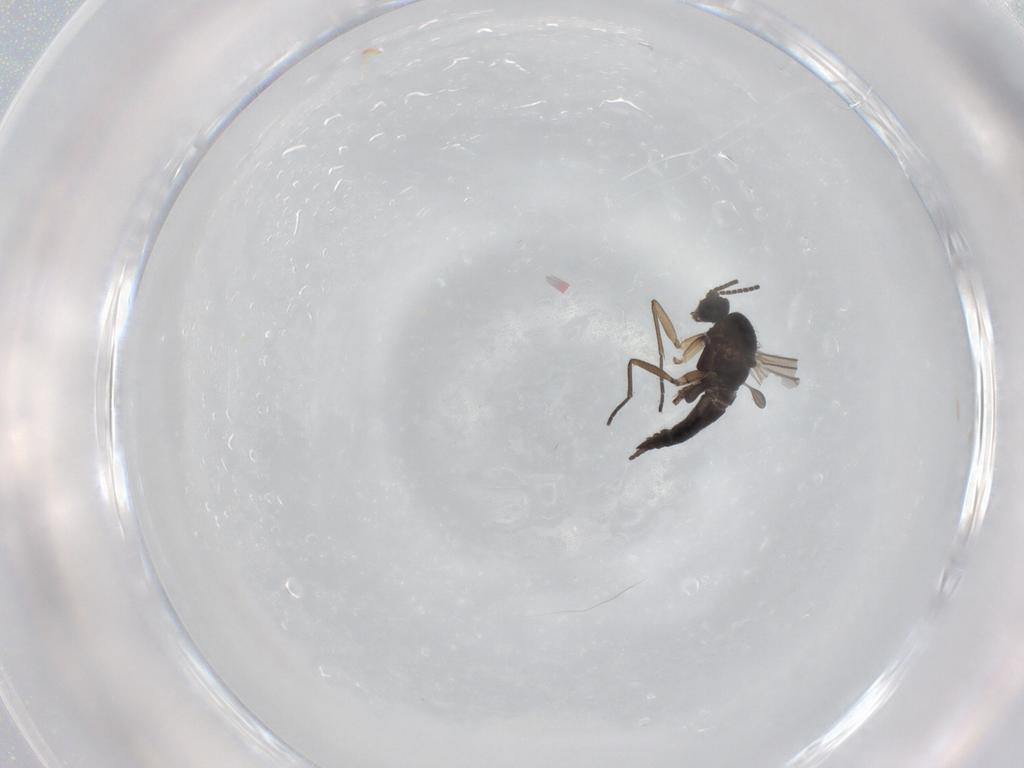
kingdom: Animalia
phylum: Arthropoda
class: Insecta
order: Diptera
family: Sciaridae
